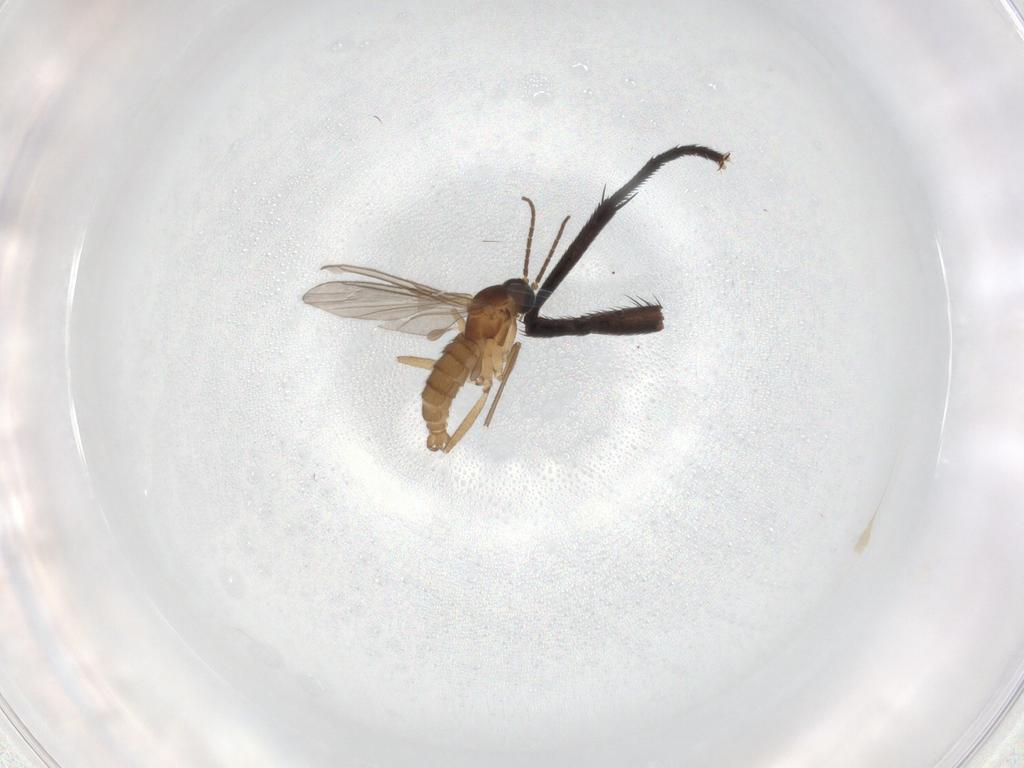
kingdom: Animalia
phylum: Arthropoda
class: Insecta
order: Diptera
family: Muscidae
